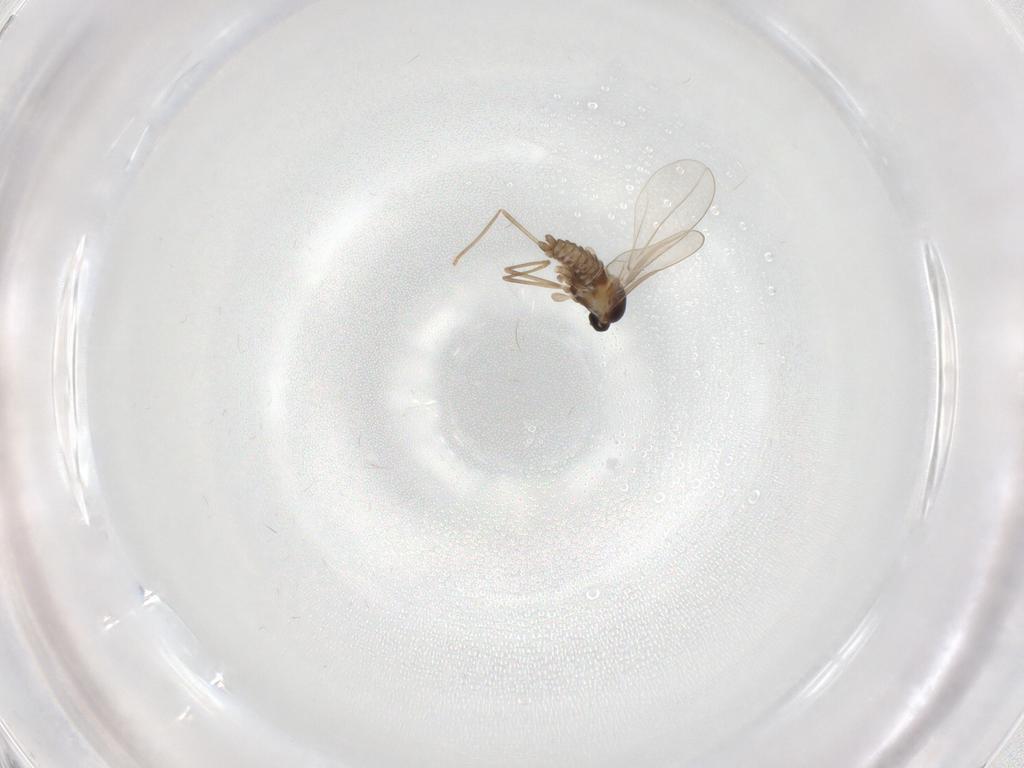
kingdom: Animalia
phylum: Arthropoda
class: Insecta
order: Diptera
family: Cecidomyiidae
